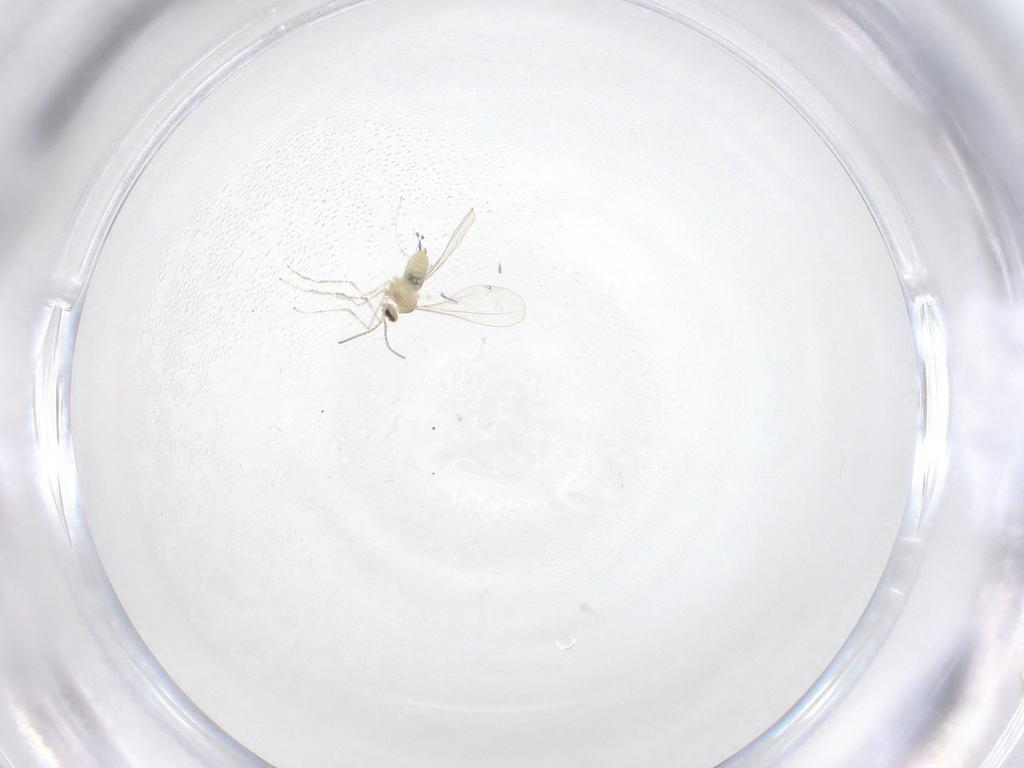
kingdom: Animalia
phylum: Arthropoda
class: Insecta
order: Diptera
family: Cecidomyiidae
